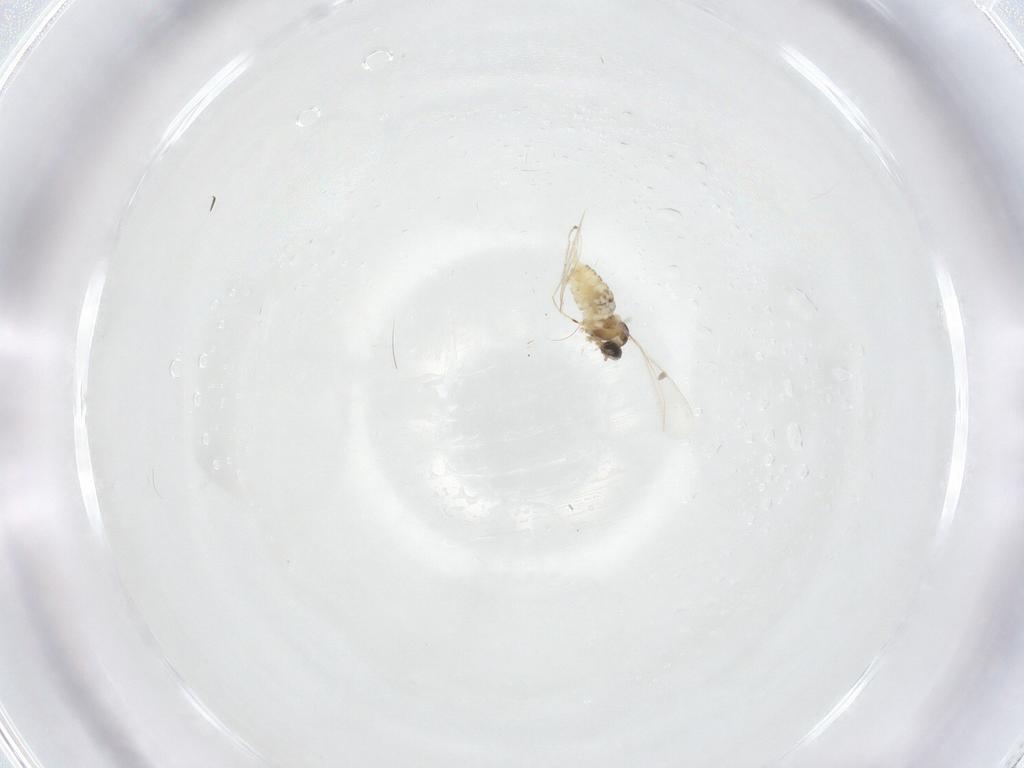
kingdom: Animalia
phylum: Arthropoda
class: Insecta
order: Diptera
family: Cecidomyiidae
